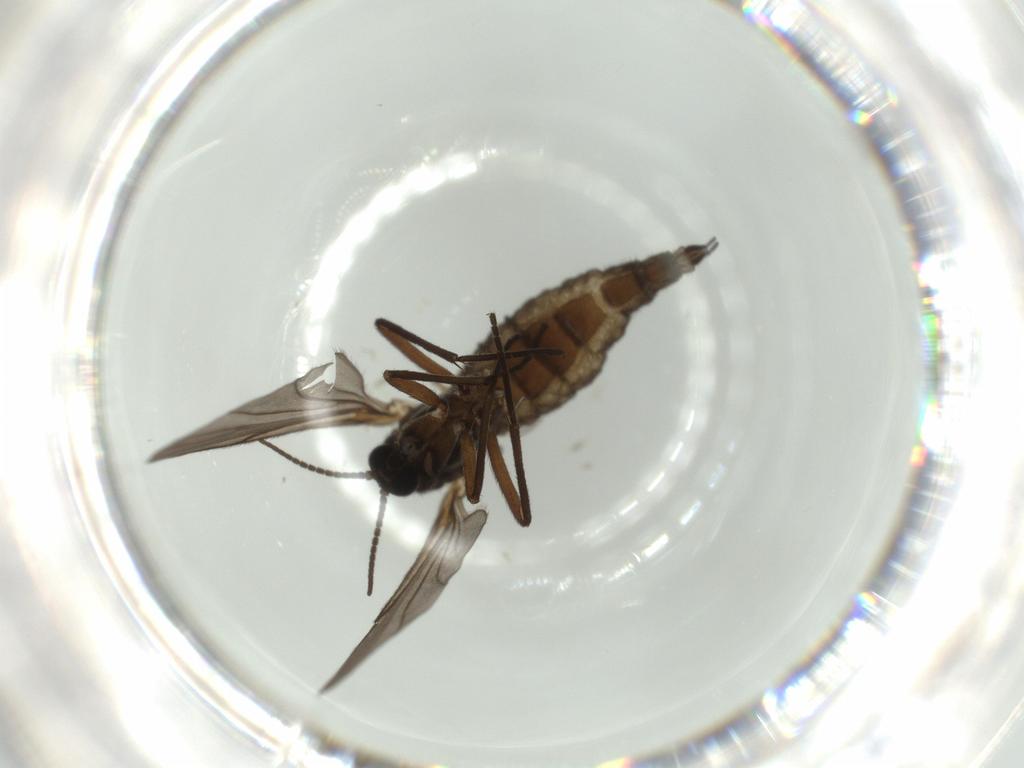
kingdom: Animalia
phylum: Arthropoda
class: Insecta
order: Diptera
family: Sciaridae
